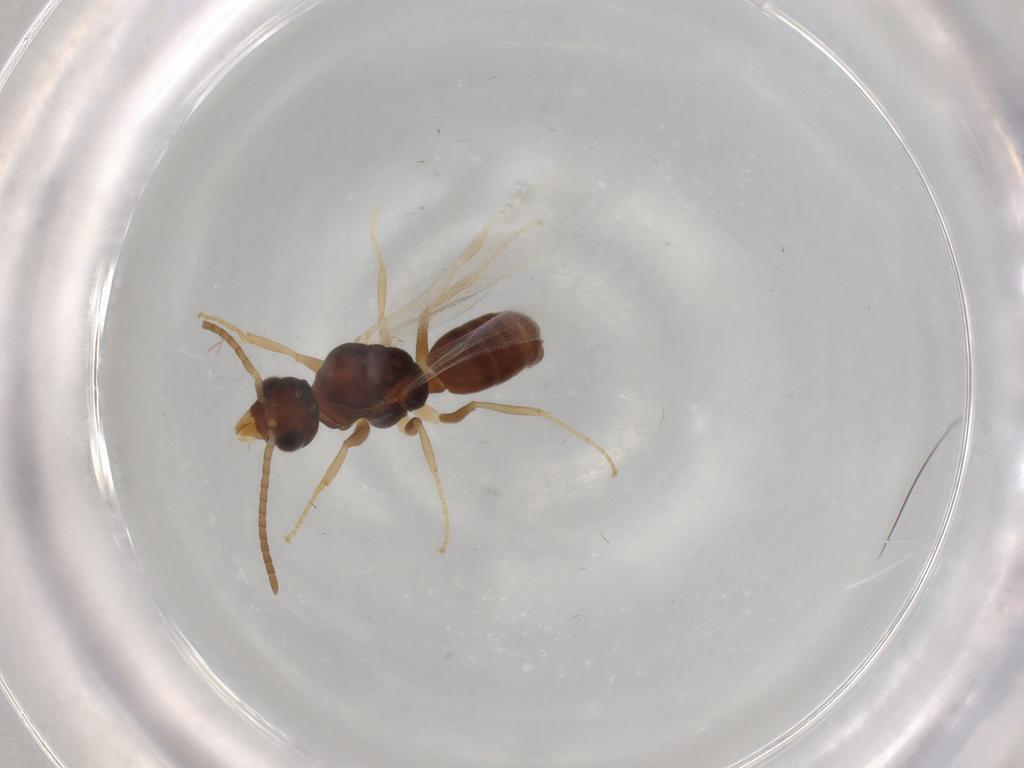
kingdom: Animalia
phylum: Arthropoda
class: Insecta
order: Hymenoptera
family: Formicidae
